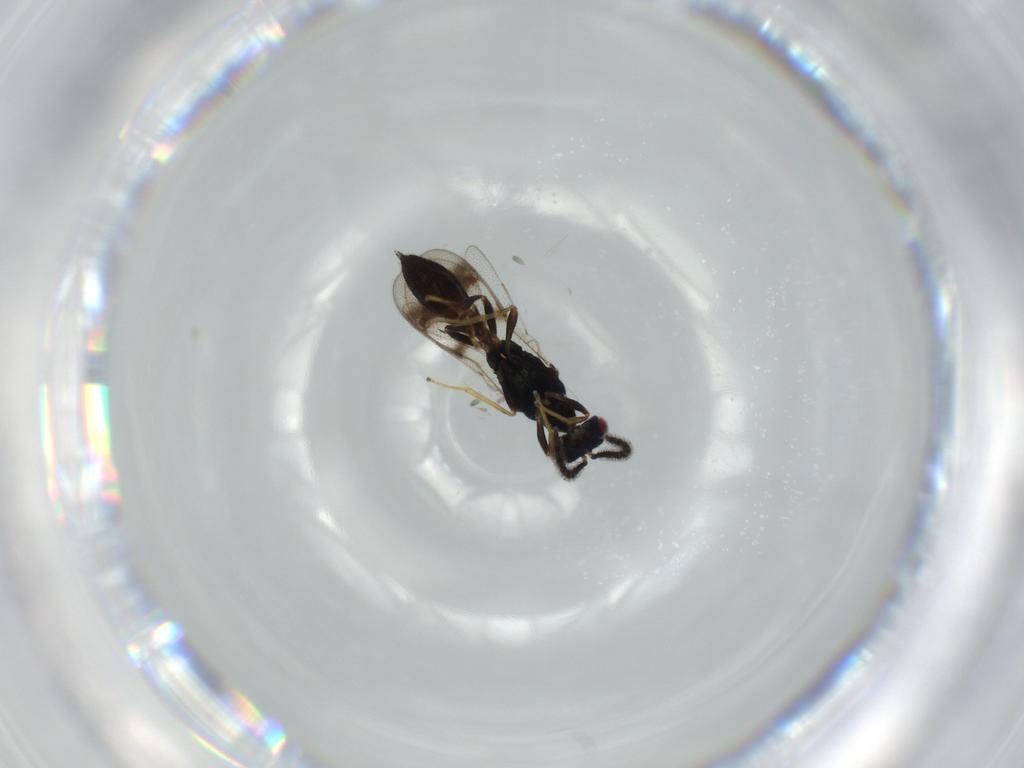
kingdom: Animalia
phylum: Arthropoda
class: Insecta
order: Hymenoptera
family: Pteromalidae
